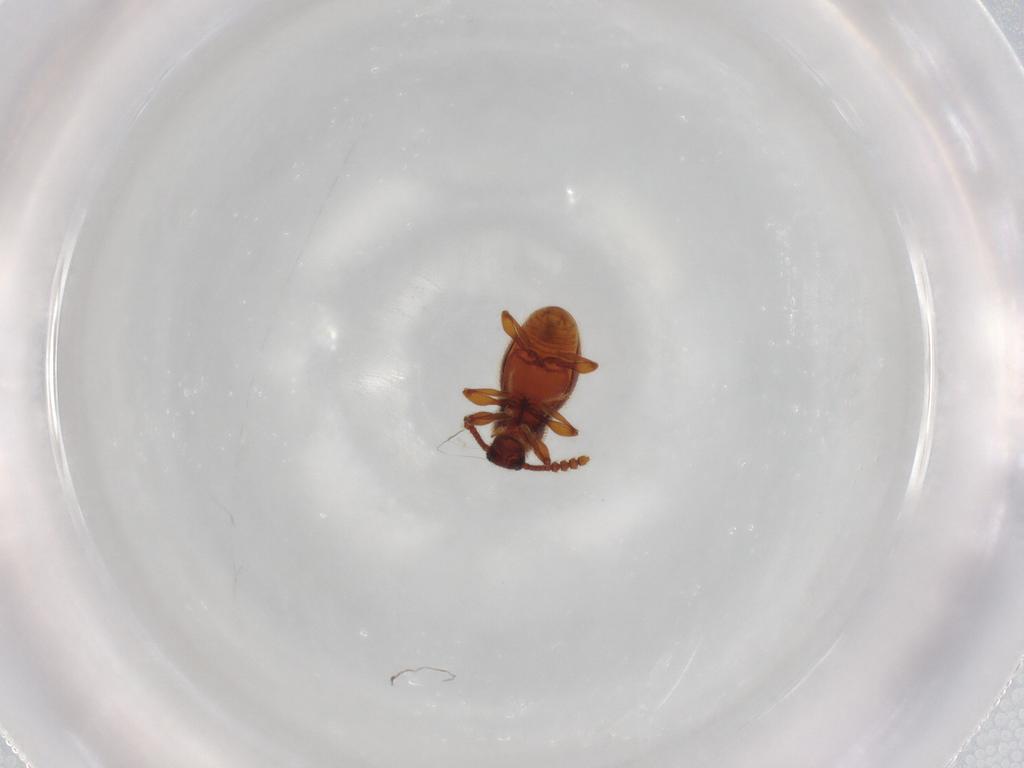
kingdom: Animalia
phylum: Arthropoda
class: Insecta
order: Coleoptera
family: Staphylinidae
